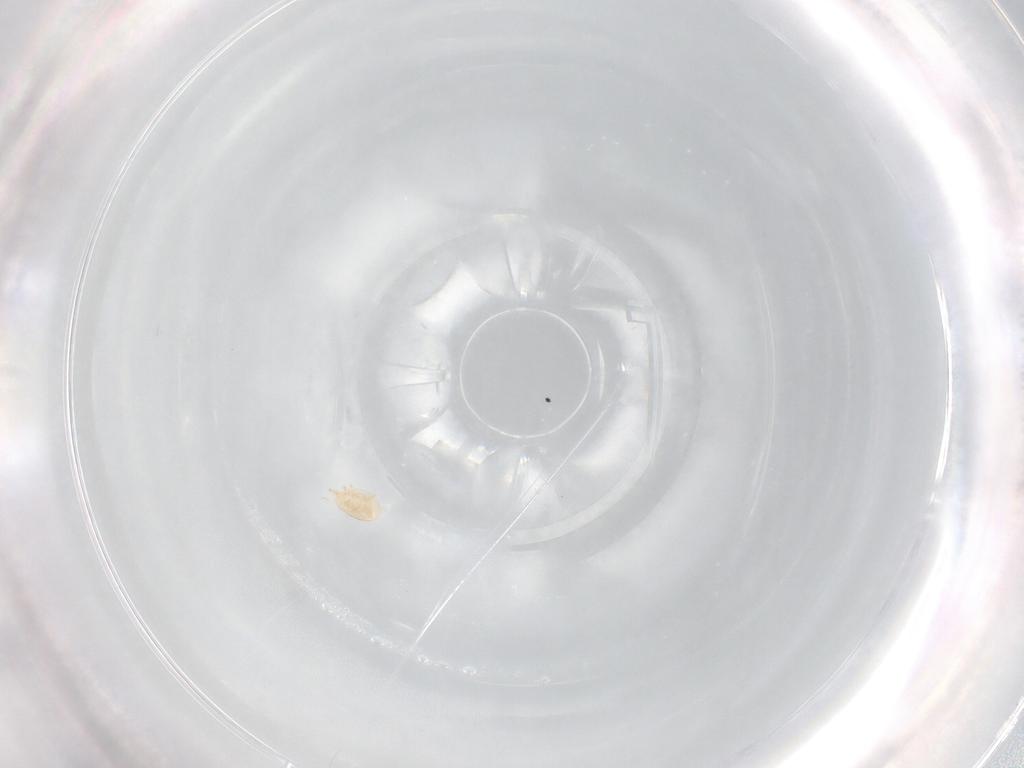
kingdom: Animalia
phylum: Arthropoda
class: Arachnida
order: Mesostigmata
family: Trematuridae
